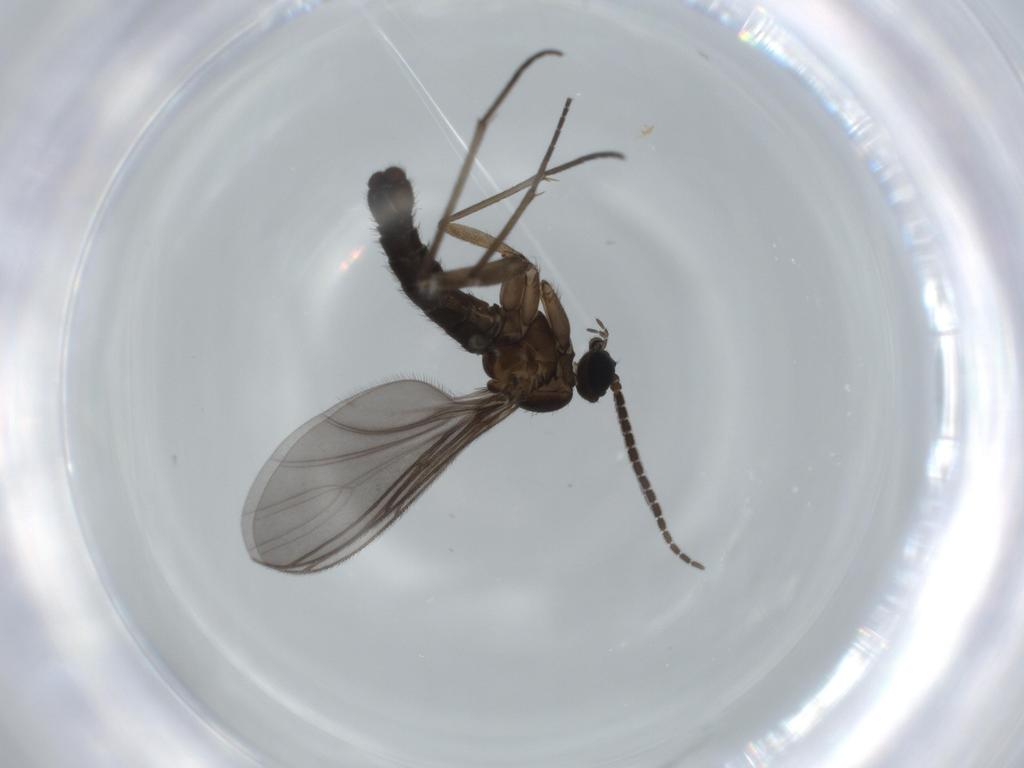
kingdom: Animalia
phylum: Arthropoda
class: Insecta
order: Diptera
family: Sciaridae
